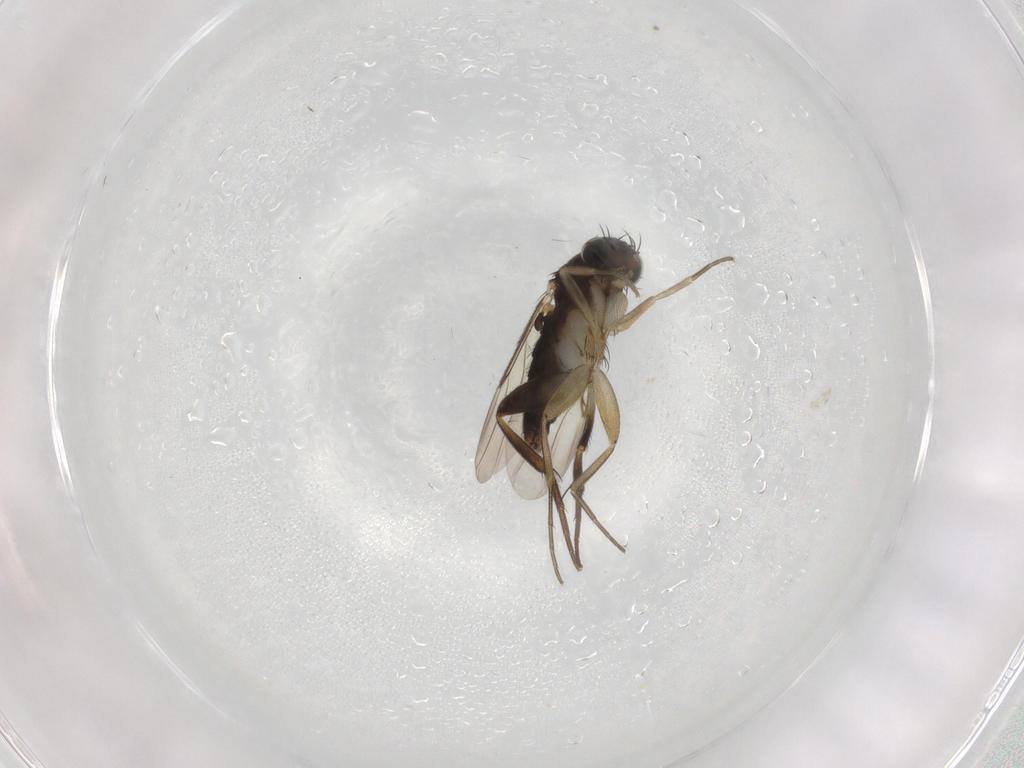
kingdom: Animalia
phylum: Arthropoda
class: Insecta
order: Diptera
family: Phoridae
